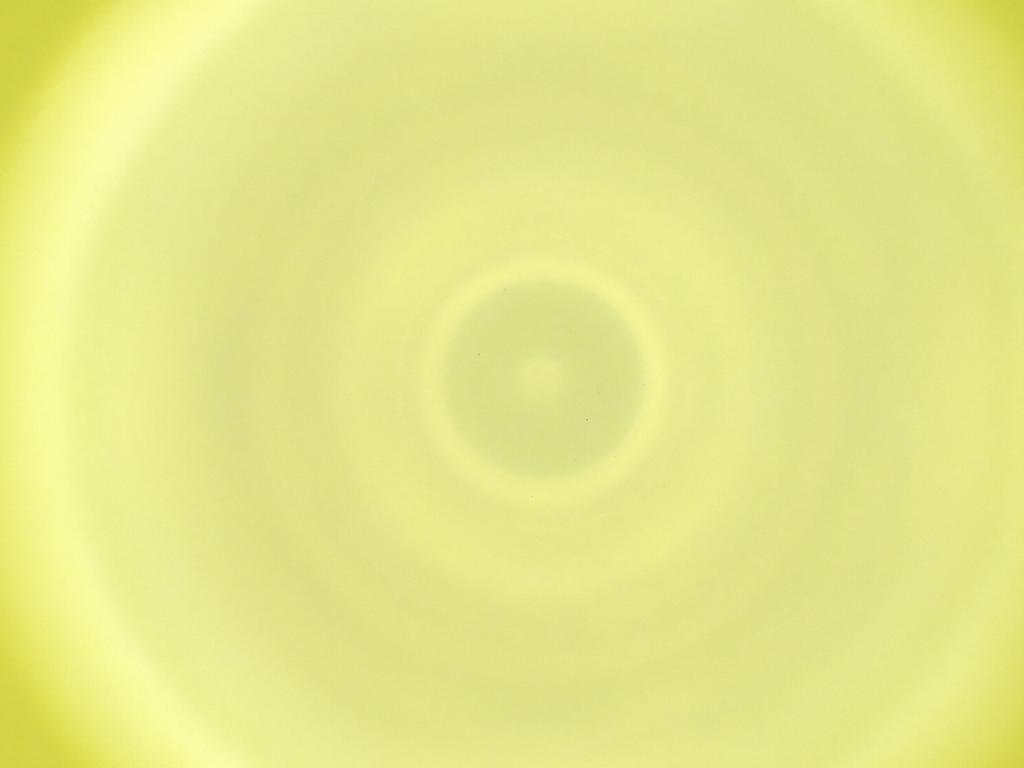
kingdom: Animalia
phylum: Arthropoda
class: Insecta
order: Diptera
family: Cecidomyiidae
